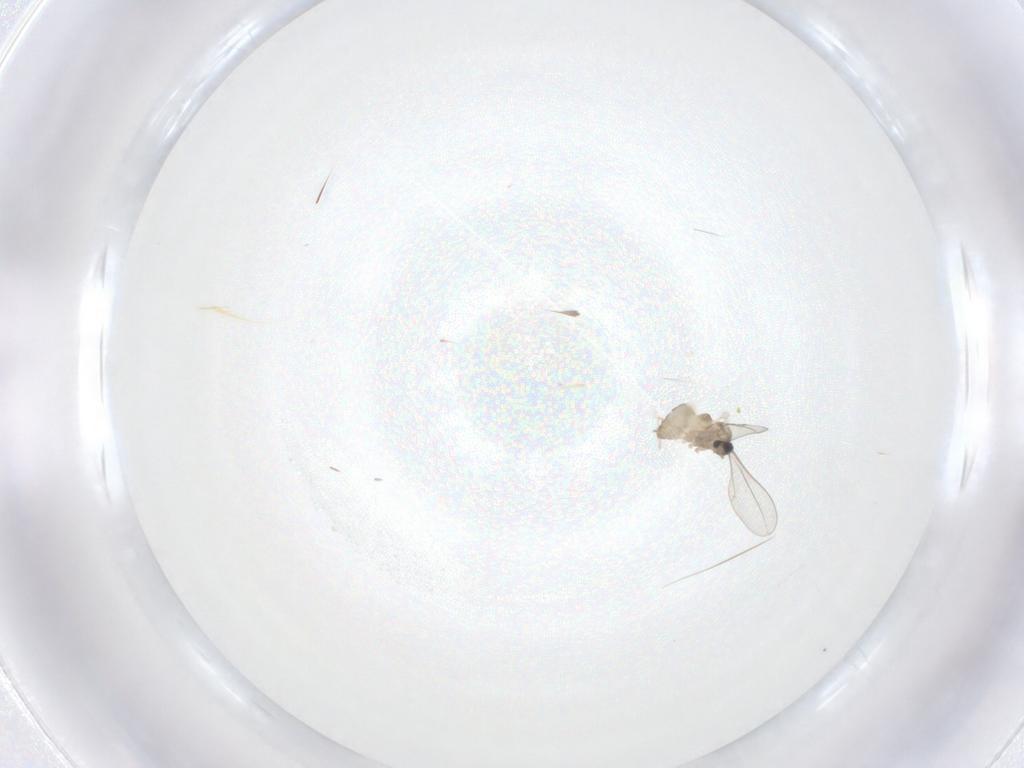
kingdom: Animalia
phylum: Arthropoda
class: Insecta
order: Diptera
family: Cecidomyiidae
